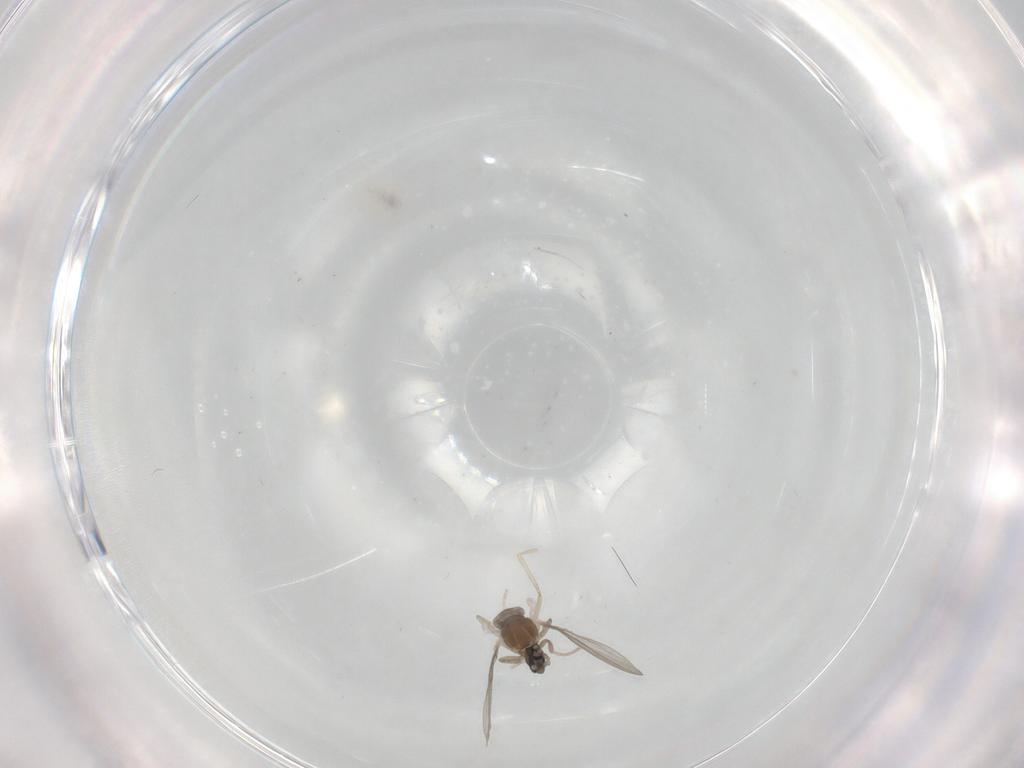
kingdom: Animalia
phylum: Arthropoda
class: Insecta
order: Diptera
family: Cecidomyiidae
